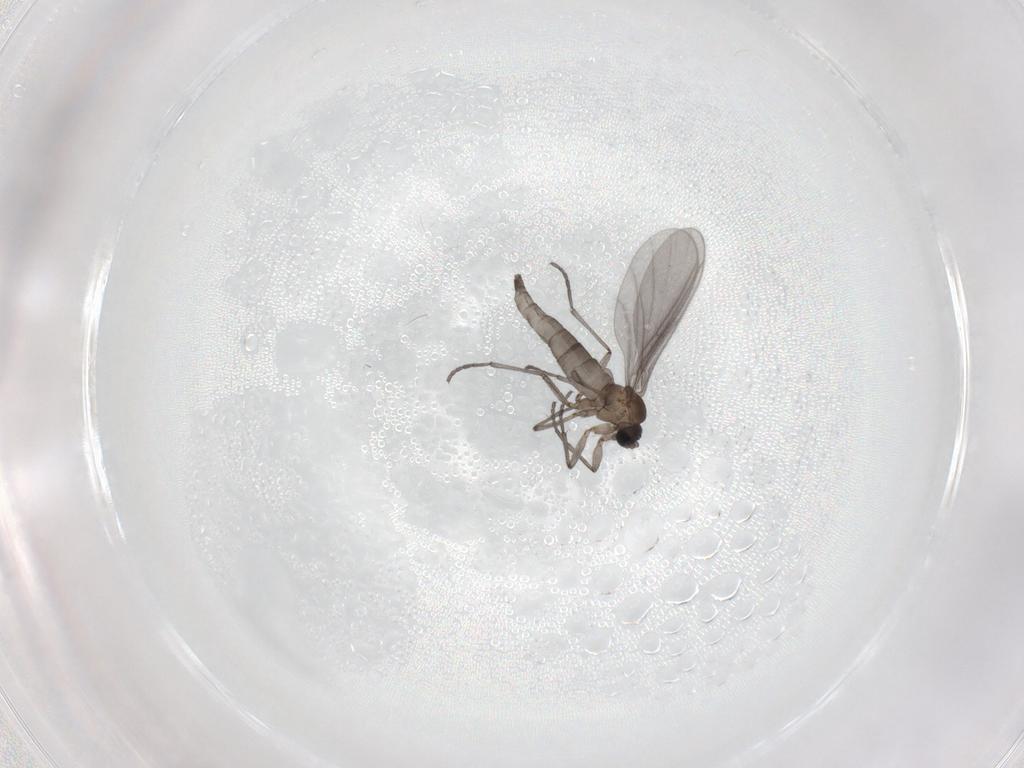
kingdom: Animalia
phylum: Arthropoda
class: Insecta
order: Diptera
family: Sciaridae
